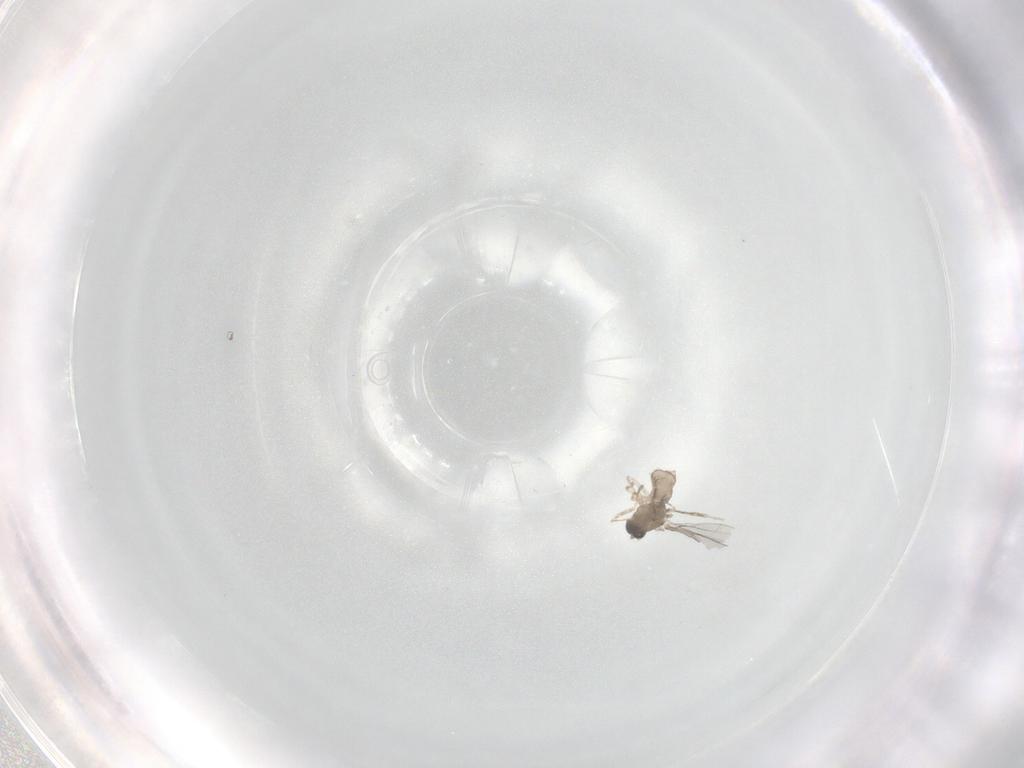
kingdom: Animalia
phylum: Arthropoda
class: Insecta
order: Diptera
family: Cecidomyiidae
